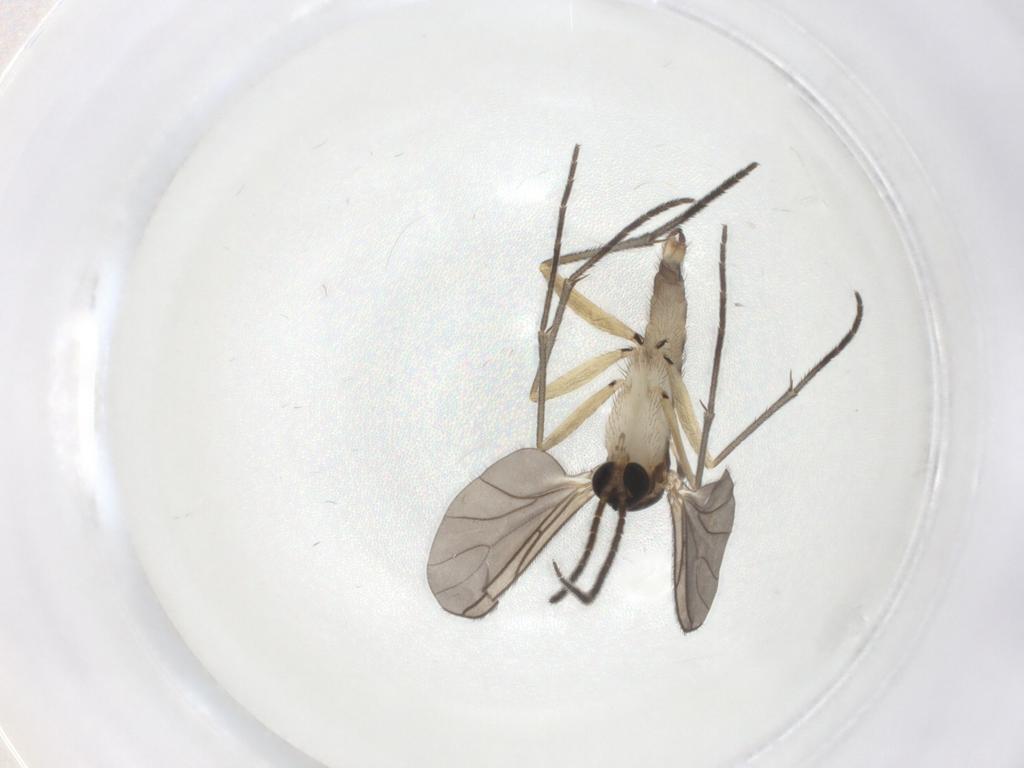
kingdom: Animalia
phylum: Arthropoda
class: Insecta
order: Diptera
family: Sciaridae
